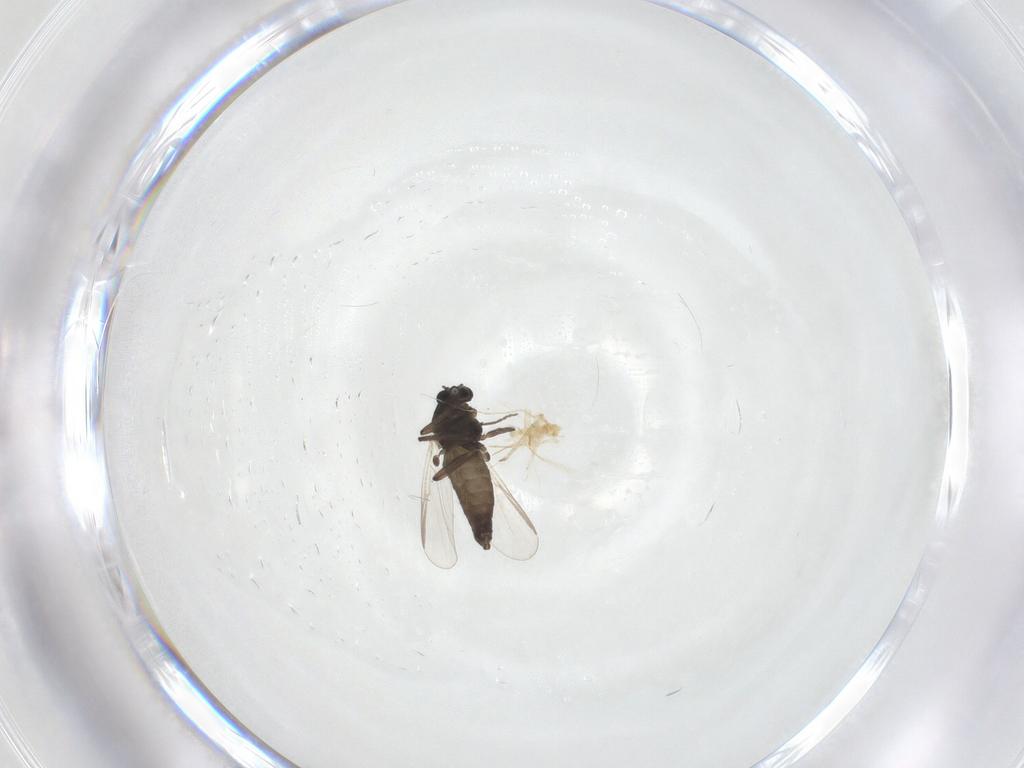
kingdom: Animalia
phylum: Arthropoda
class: Insecta
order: Diptera
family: Chironomidae
